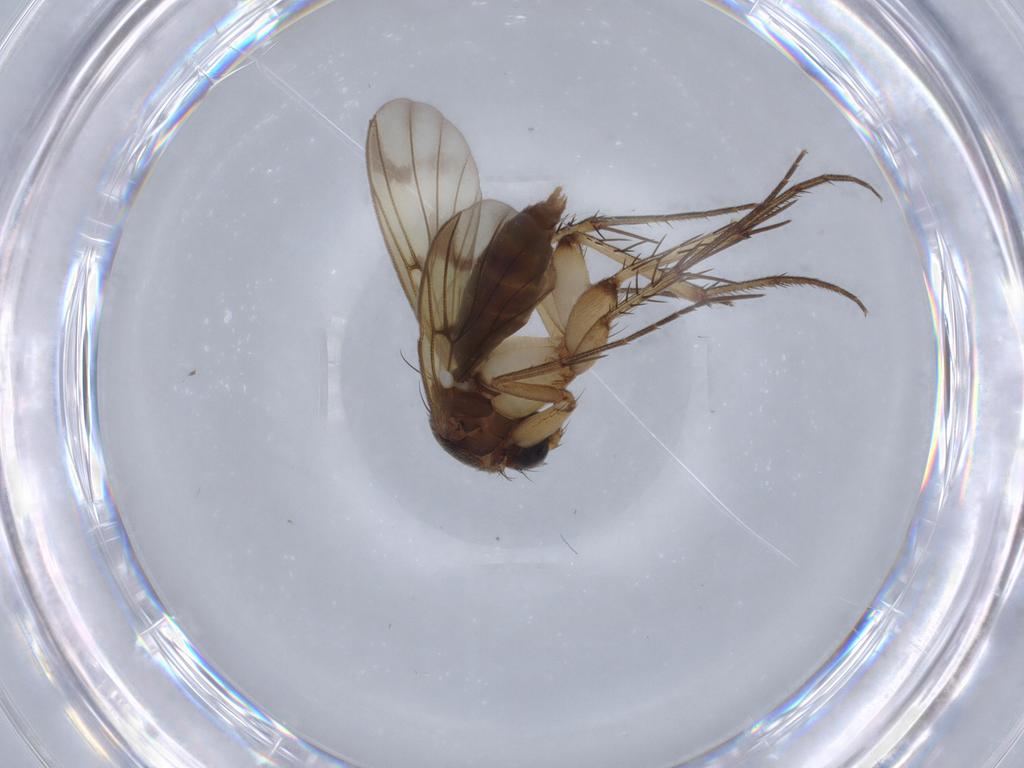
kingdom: Animalia
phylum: Arthropoda
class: Insecta
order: Diptera
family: Mycetophilidae
